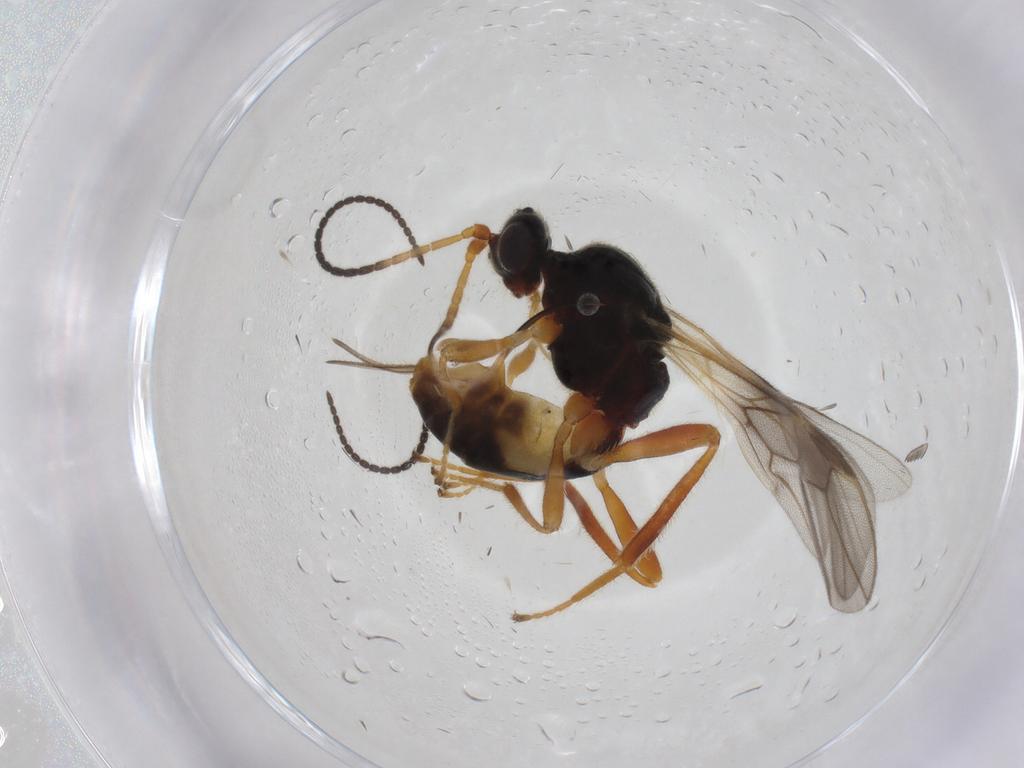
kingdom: Animalia
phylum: Arthropoda
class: Insecta
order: Hymenoptera
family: Braconidae
